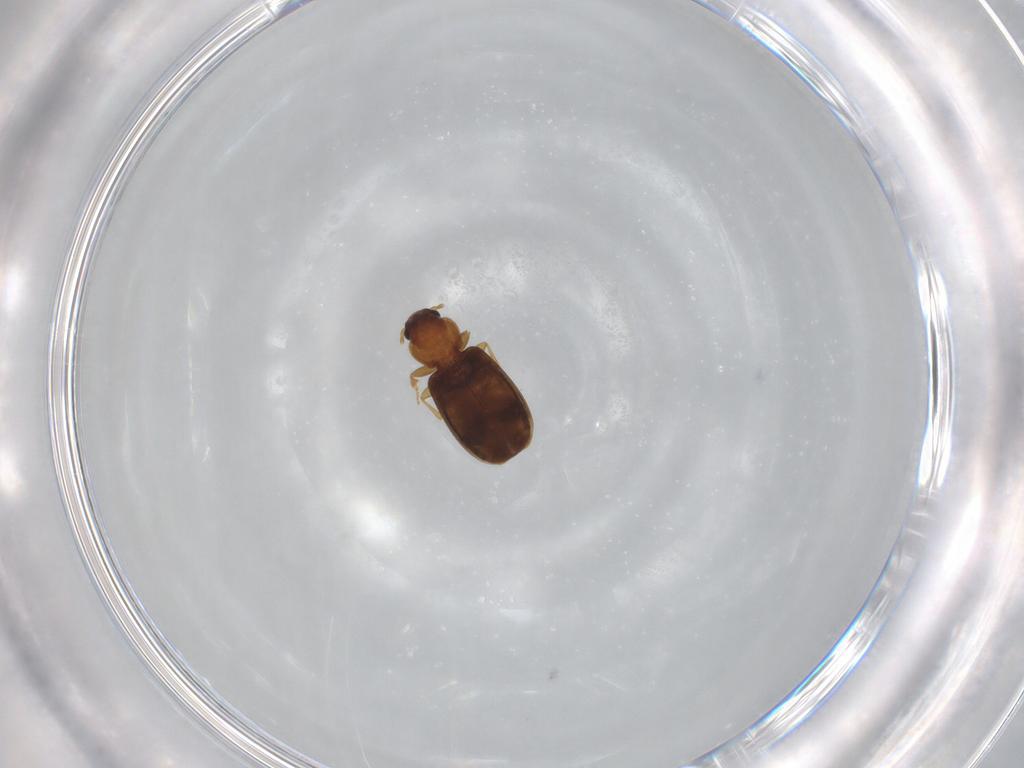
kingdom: Animalia
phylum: Arthropoda
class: Insecta
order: Coleoptera
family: Carabidae
